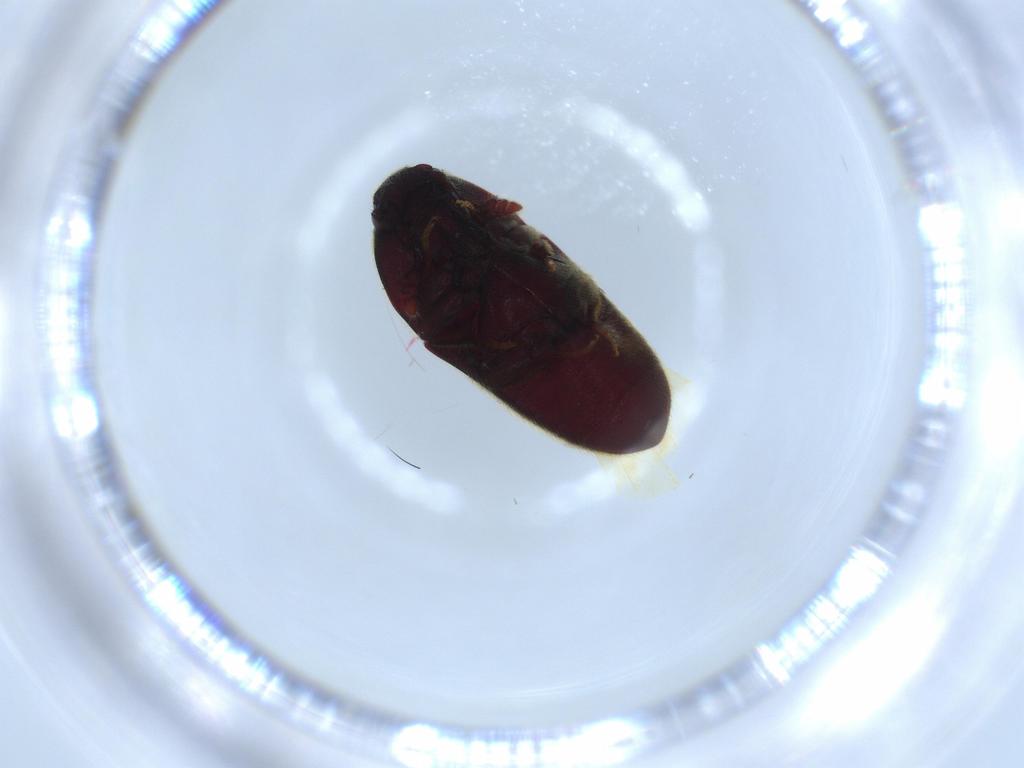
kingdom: Animalia
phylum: Arthropoda
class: Insecta
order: Coleoptera
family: Throscidae
